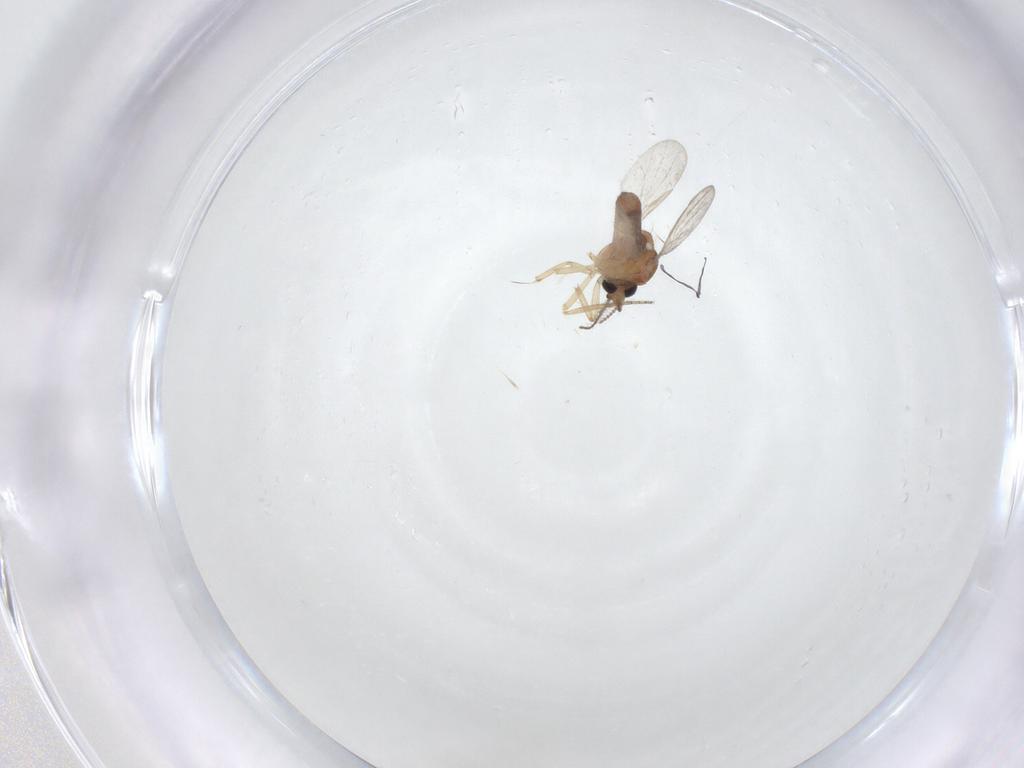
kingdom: Animalia
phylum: Arthropoda
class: Insecta
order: Diptera
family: Ceratopogonidae
